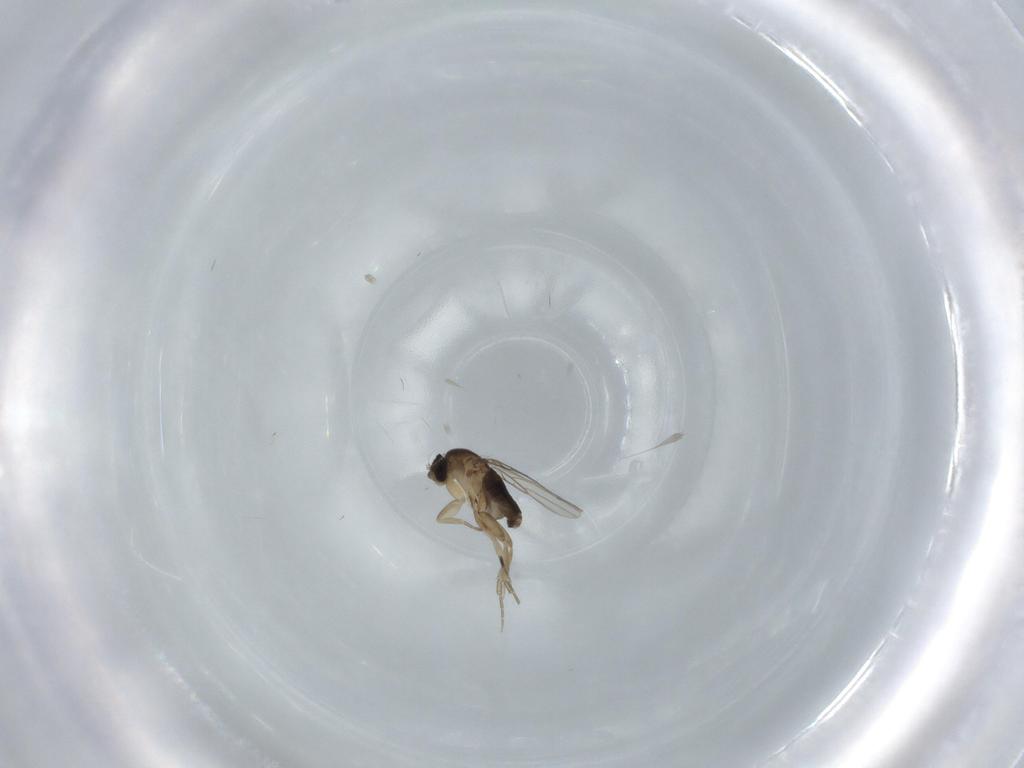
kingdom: Animalia
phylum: Arthropoda
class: Insecta
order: Diptera
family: Phoridae
